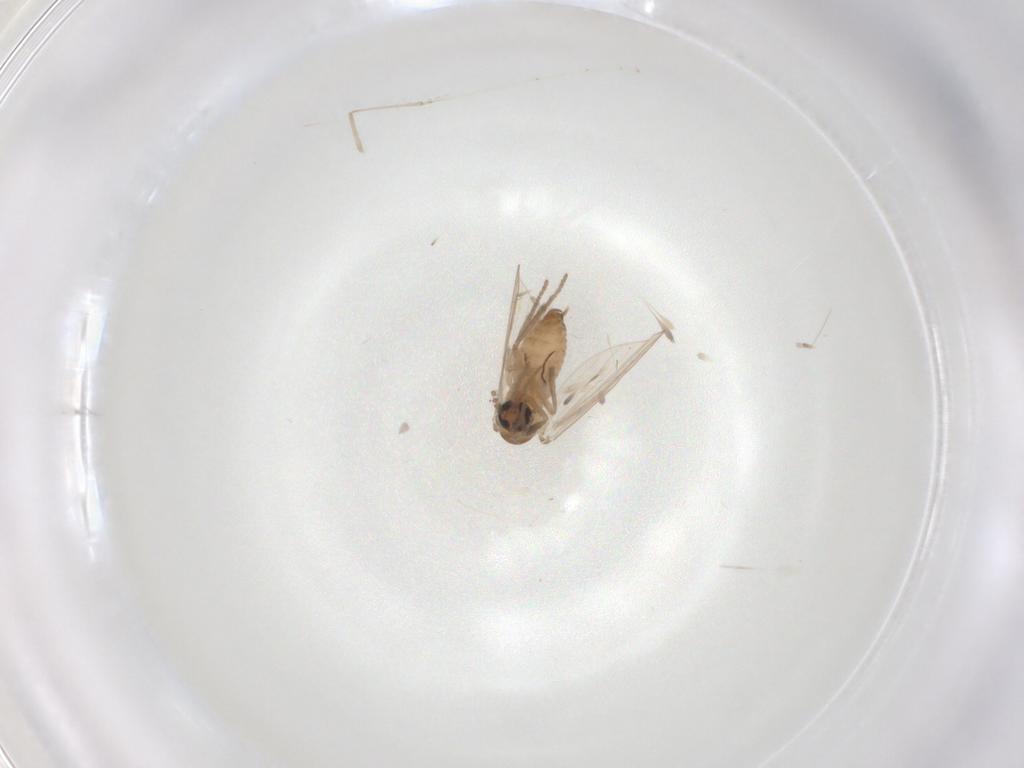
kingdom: Animalia
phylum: Arthropoda
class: Insecta
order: Diptera
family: Psychodidae
